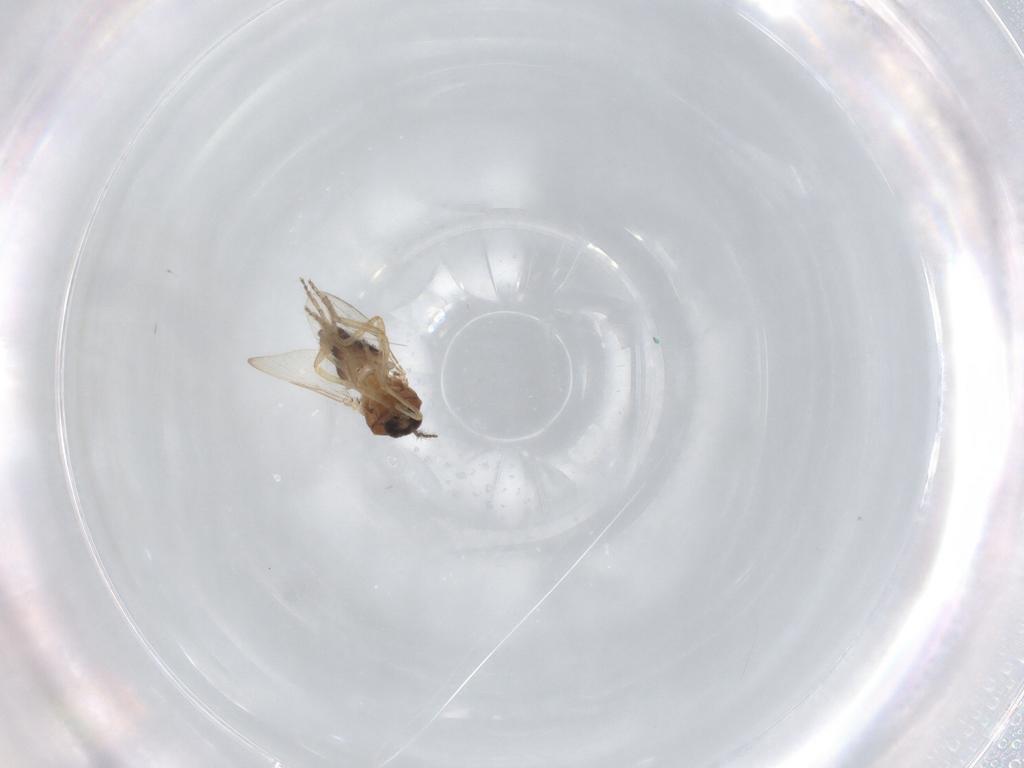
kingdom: Animalia
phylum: Arthropoda
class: Insecta
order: Diptera
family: Ceratopogonidae
